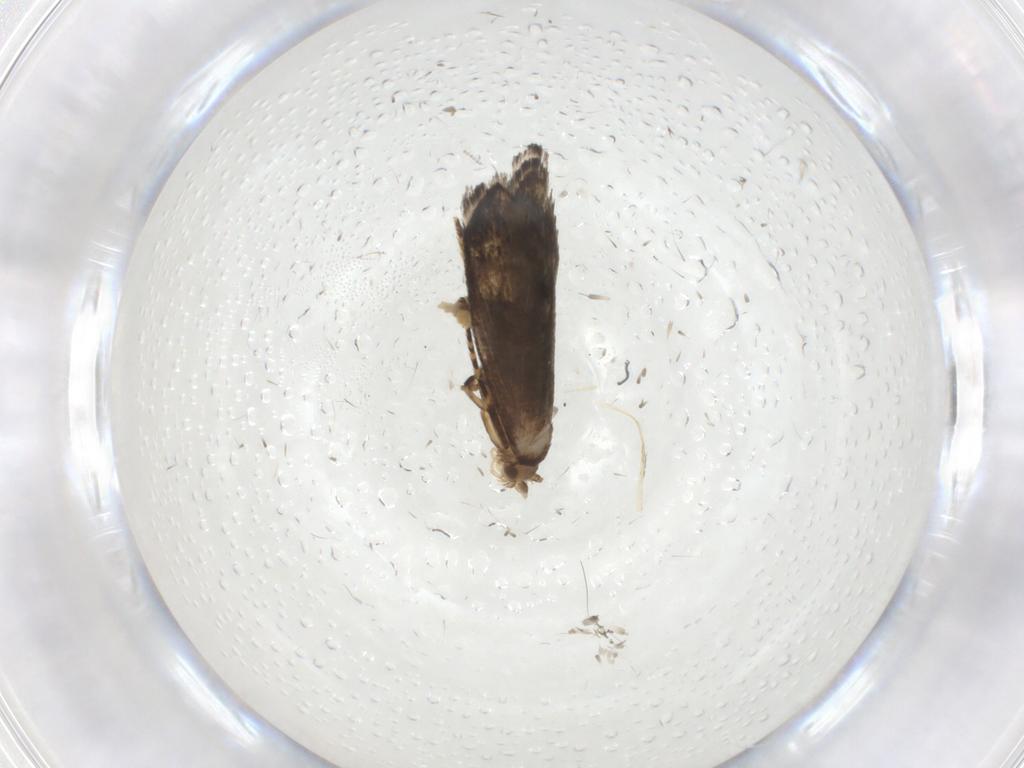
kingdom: Animalia
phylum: Arthropoda
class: Insecta
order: Lepidoptera
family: Tineidae
